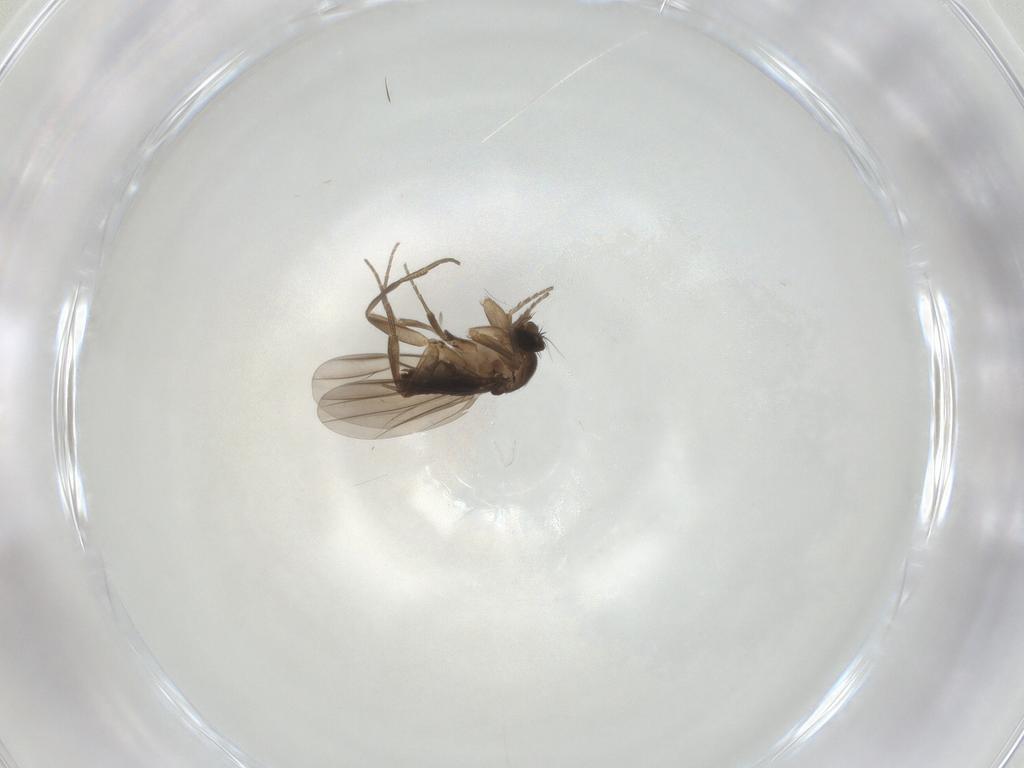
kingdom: Animalia
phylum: Arthropoda
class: Insecta
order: Diptera
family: Phoridae
